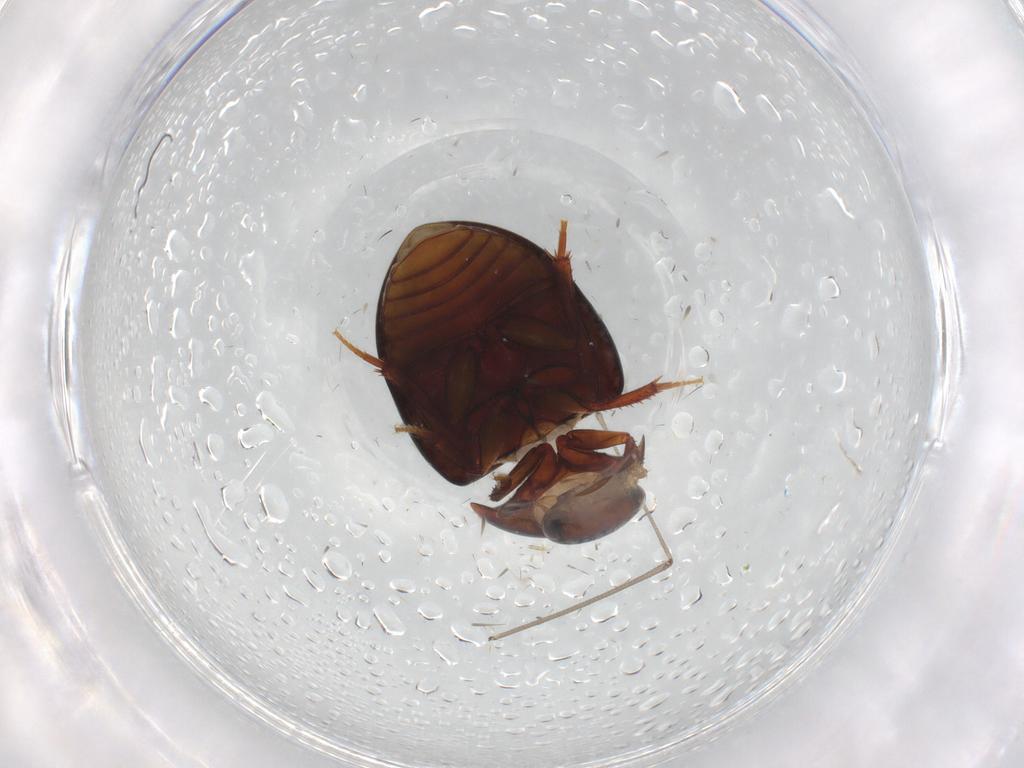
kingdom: Animalia
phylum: Arthropoda
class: Insecta
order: Coleoptera
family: Hydrophilidae
